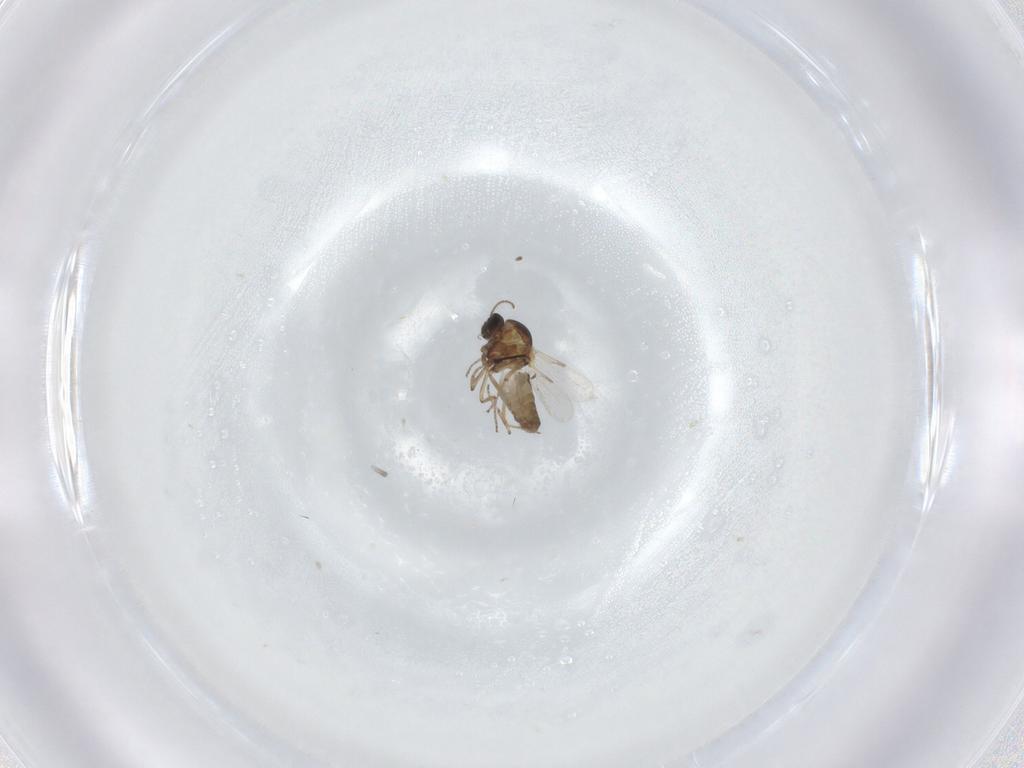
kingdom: Animalia
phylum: Arthropoda
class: Insecta
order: Diptera
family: Ceratopogonidae
